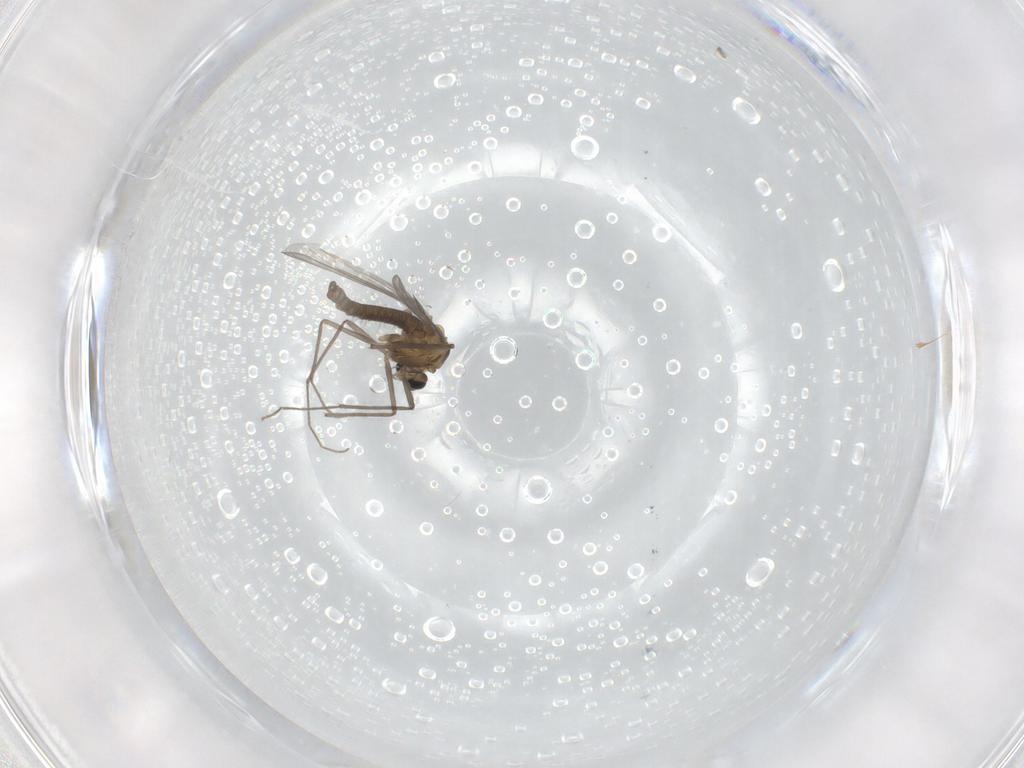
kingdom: Animalia
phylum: Arthropoda
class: Insecta
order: Diptera
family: Chironomidae
